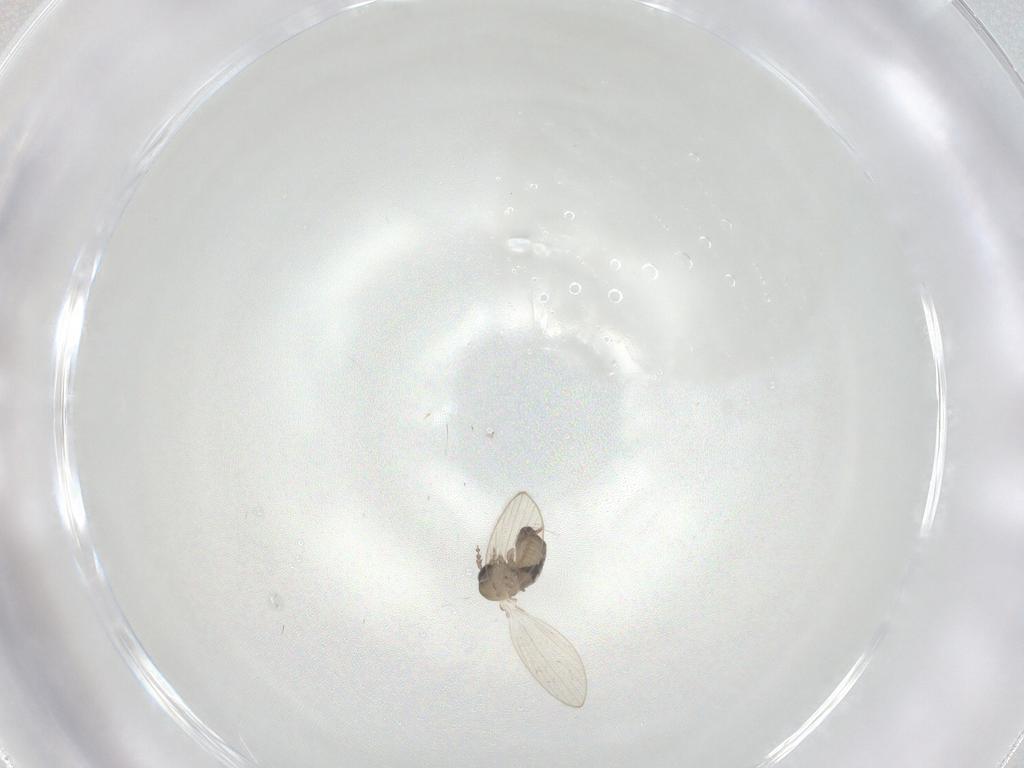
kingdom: Animalia
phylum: Arthropoda
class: Insecta
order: Diptera
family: Psychodidae
